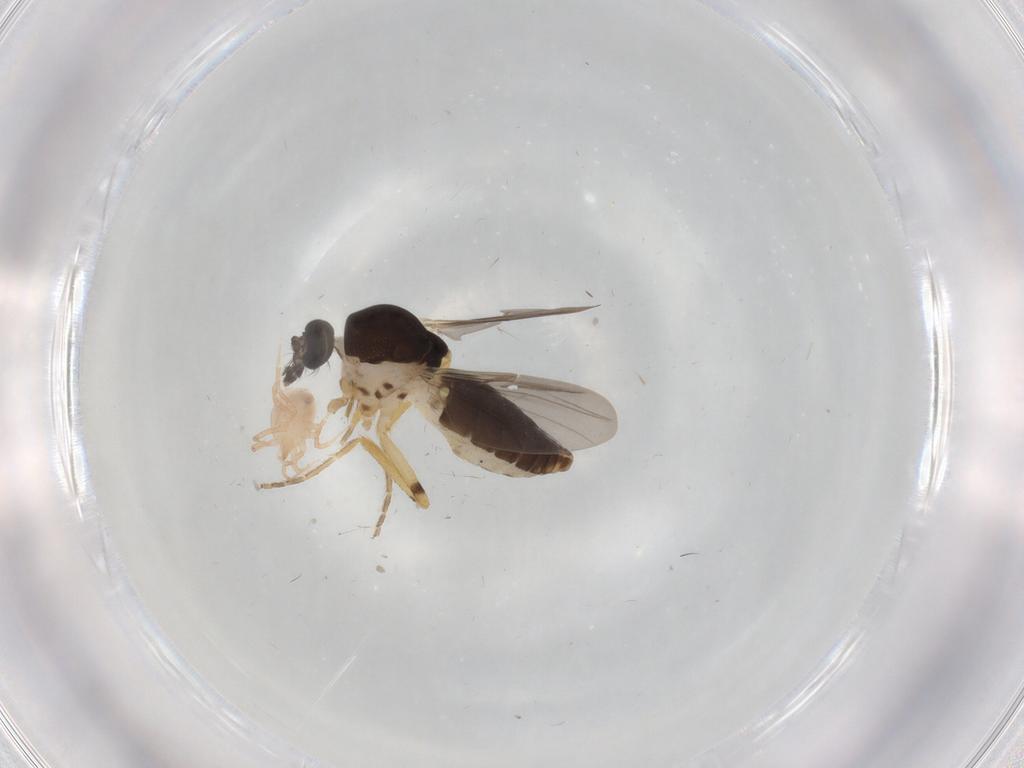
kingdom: Animalia
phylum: Arthropoda
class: Insecta
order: Diptera
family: Ceratopogonidae
